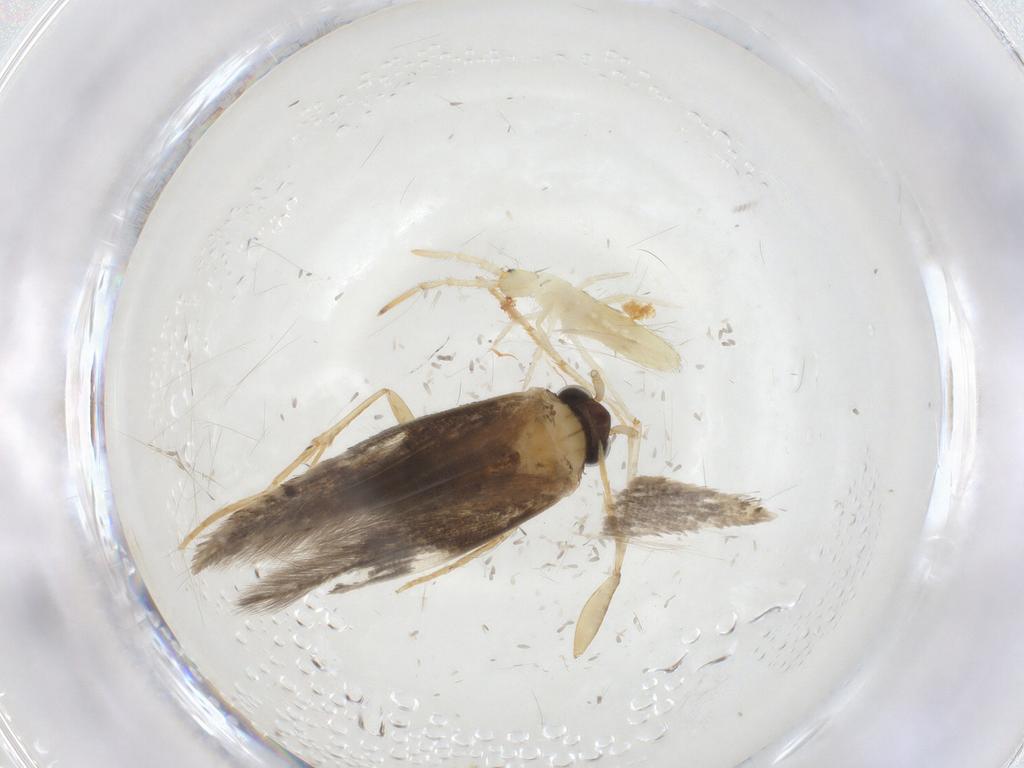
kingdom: Animalia
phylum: Arthropoda
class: Insecta
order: Lepidoptera
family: Geometridae
